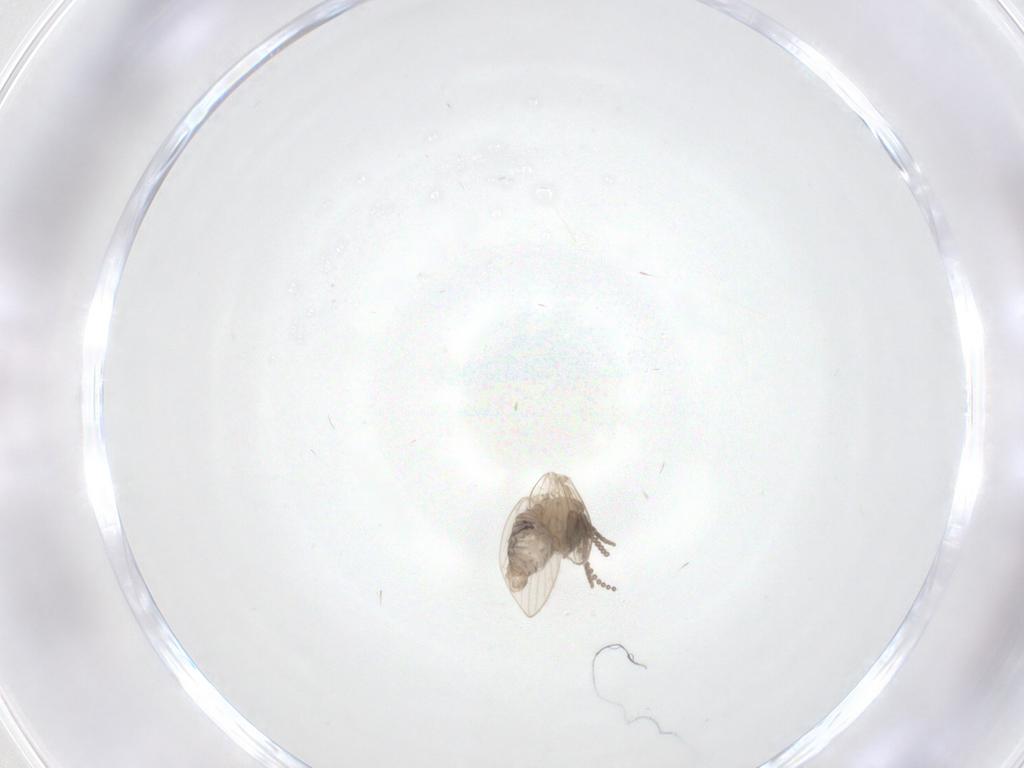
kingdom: Animalia
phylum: Arthropoda
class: Insecta
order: Diptera
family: Psychodidae
